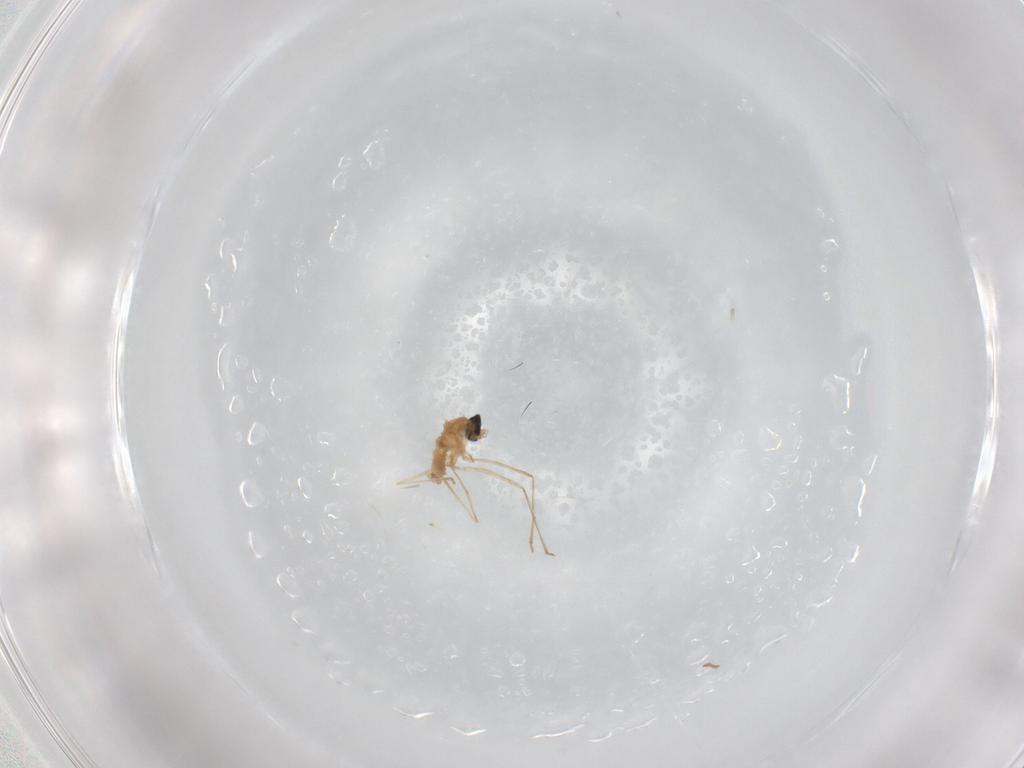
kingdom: Animalia
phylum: Arthropoda
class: Insecta
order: Diptera
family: Cecidomyiidae
